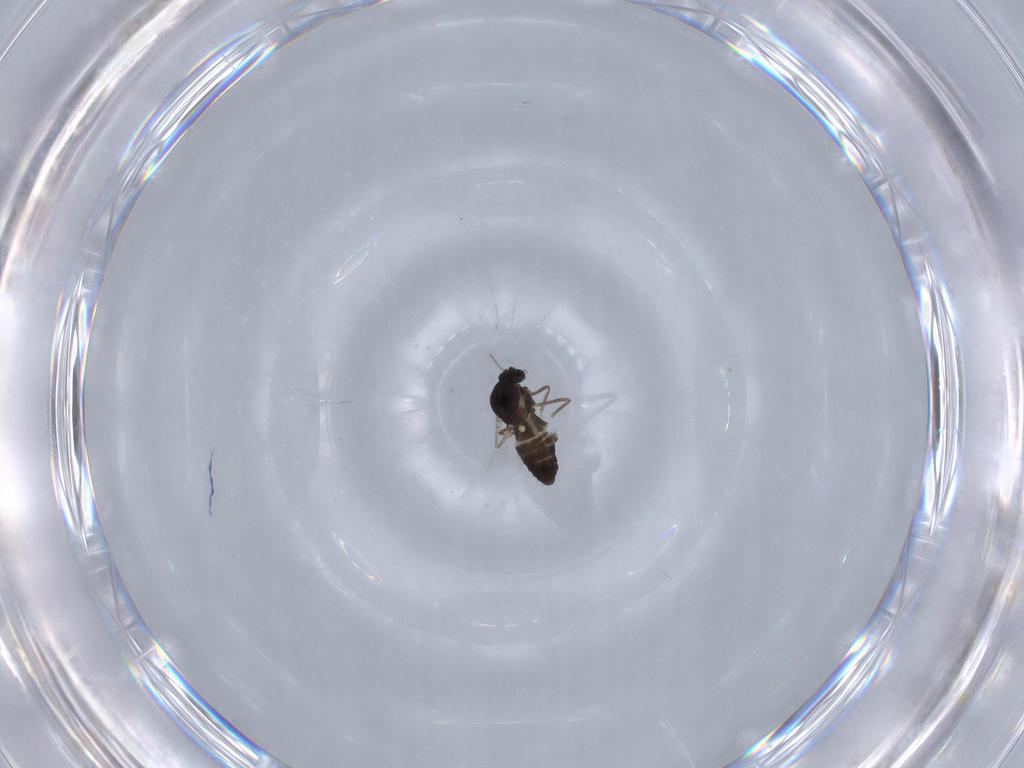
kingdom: Animalia
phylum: Arthropoda
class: Insecta
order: Diptera
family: Ceratopogonidae
